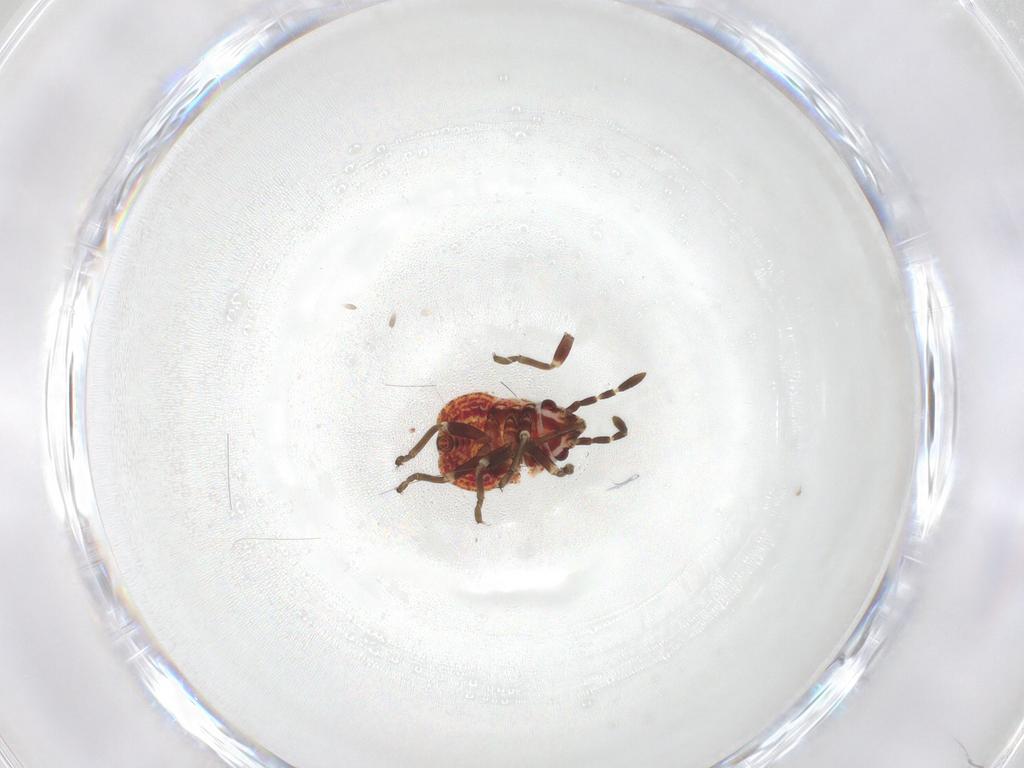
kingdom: Animalia
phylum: Arthropoda
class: Insecta
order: Hemiptera
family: Lygaeidae
